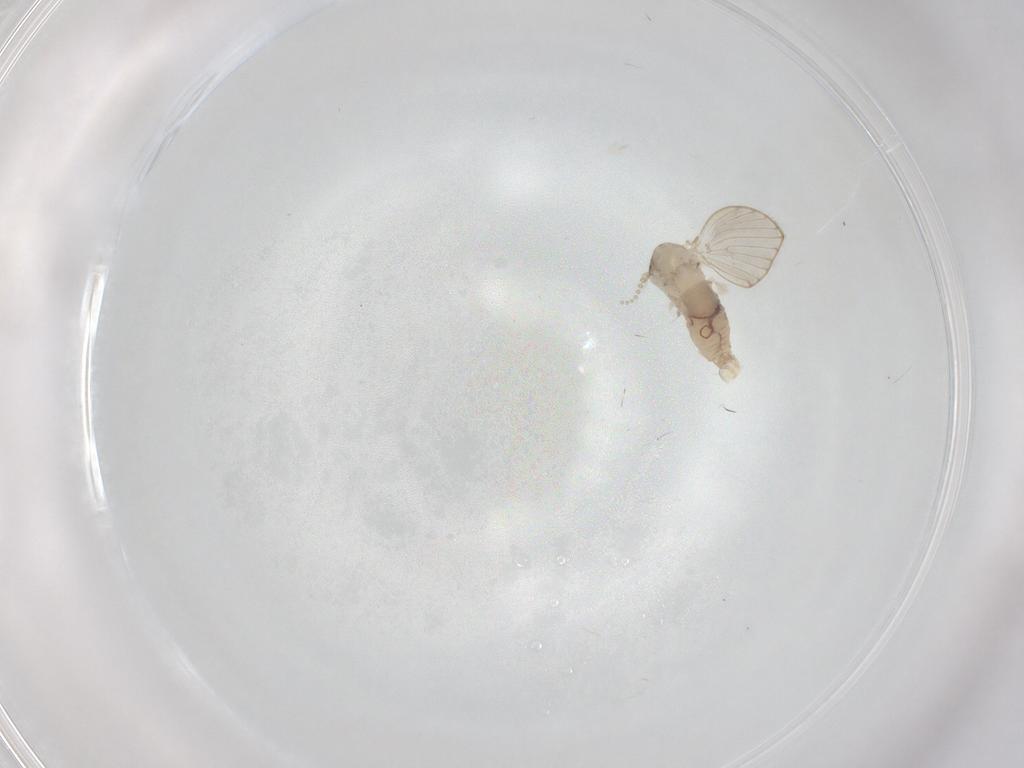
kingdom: Animalia
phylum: Arthropoda
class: Insecta
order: Diptera
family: Psychodidae
